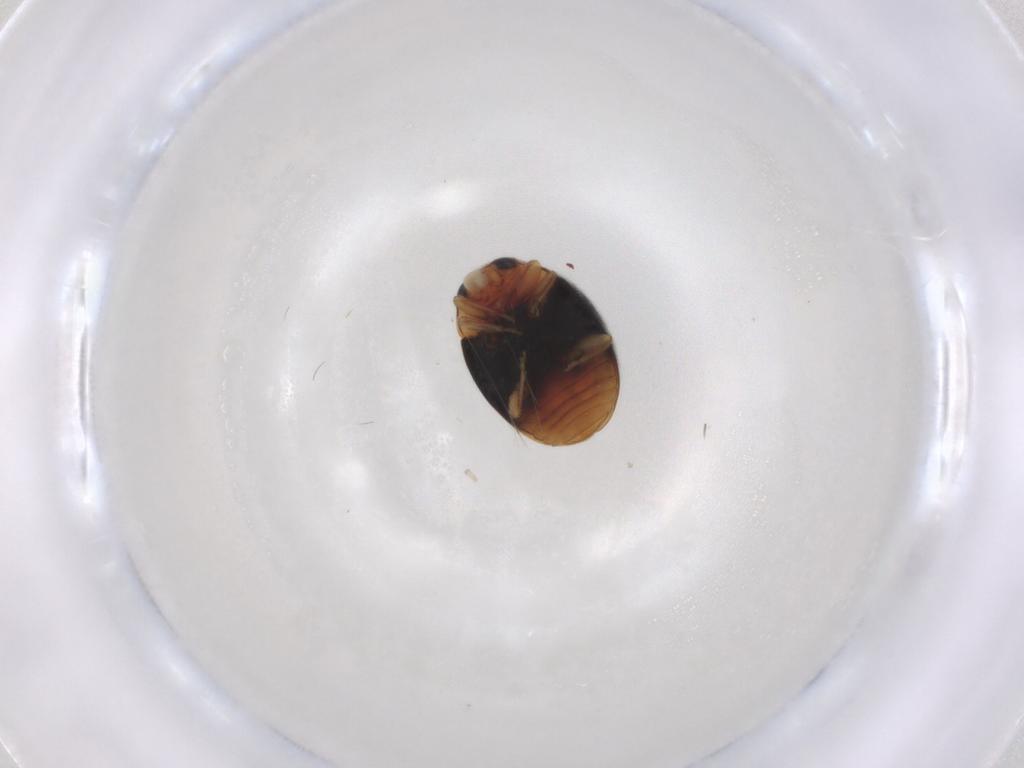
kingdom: Animalia
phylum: Arthropoda
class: Insecta
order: Coleoptera
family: Coccinellidae
